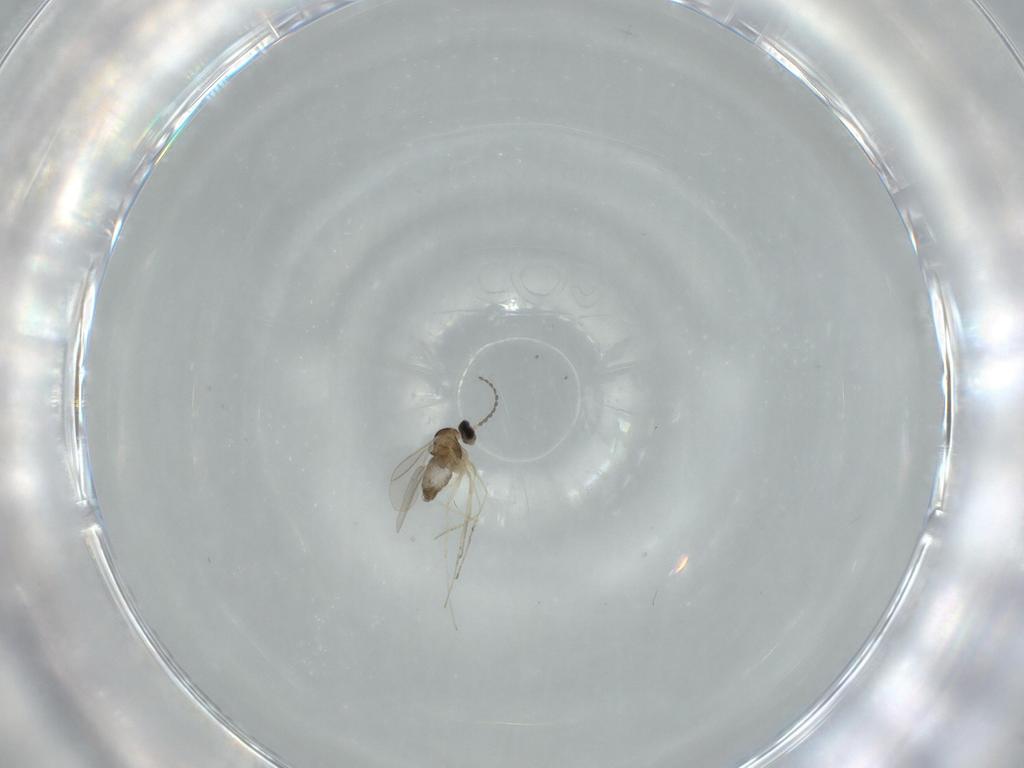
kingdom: Animalia
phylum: Arthropoda
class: Insecta
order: Diptera
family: Cecidomyiidae
